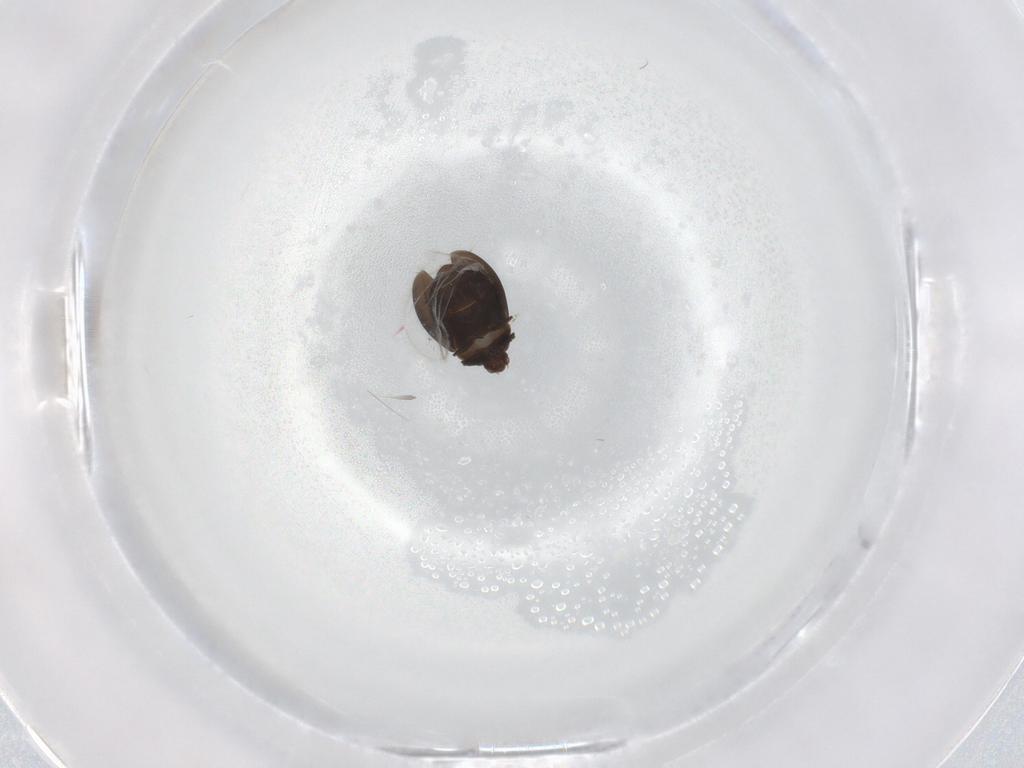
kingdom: Animalia
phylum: Arthropoda
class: Insecta
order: Coleoptera
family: Corylophidae
